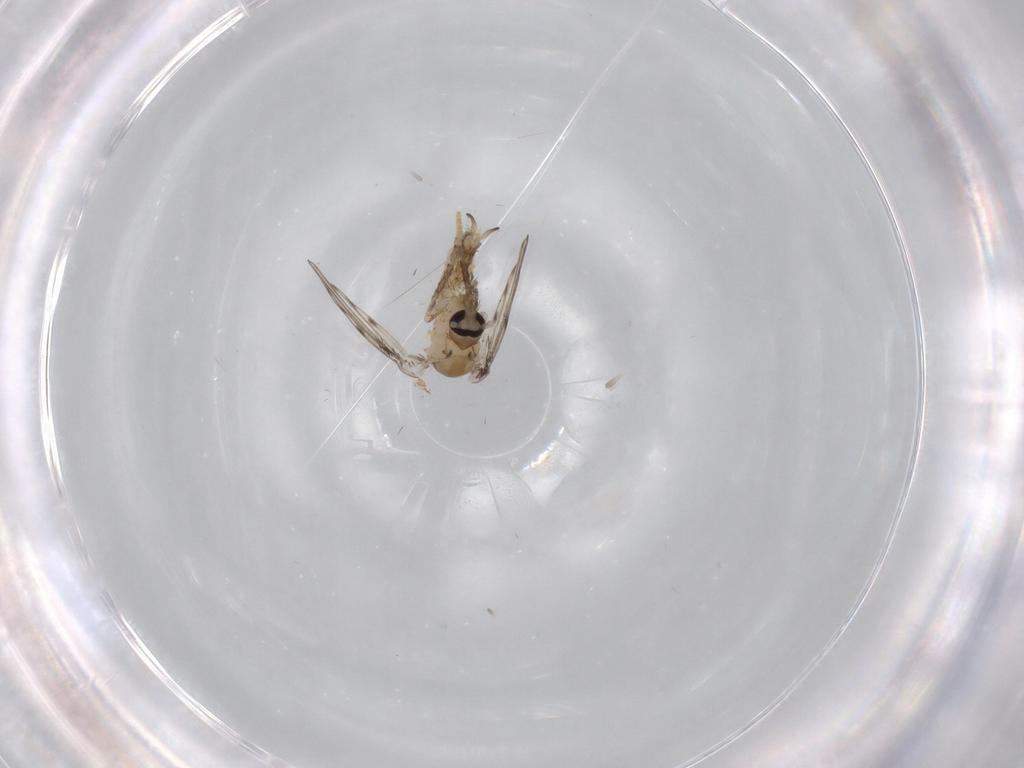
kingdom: Animalia
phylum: Arthropoda
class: Insecta
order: Diptera
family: Psychodidae
